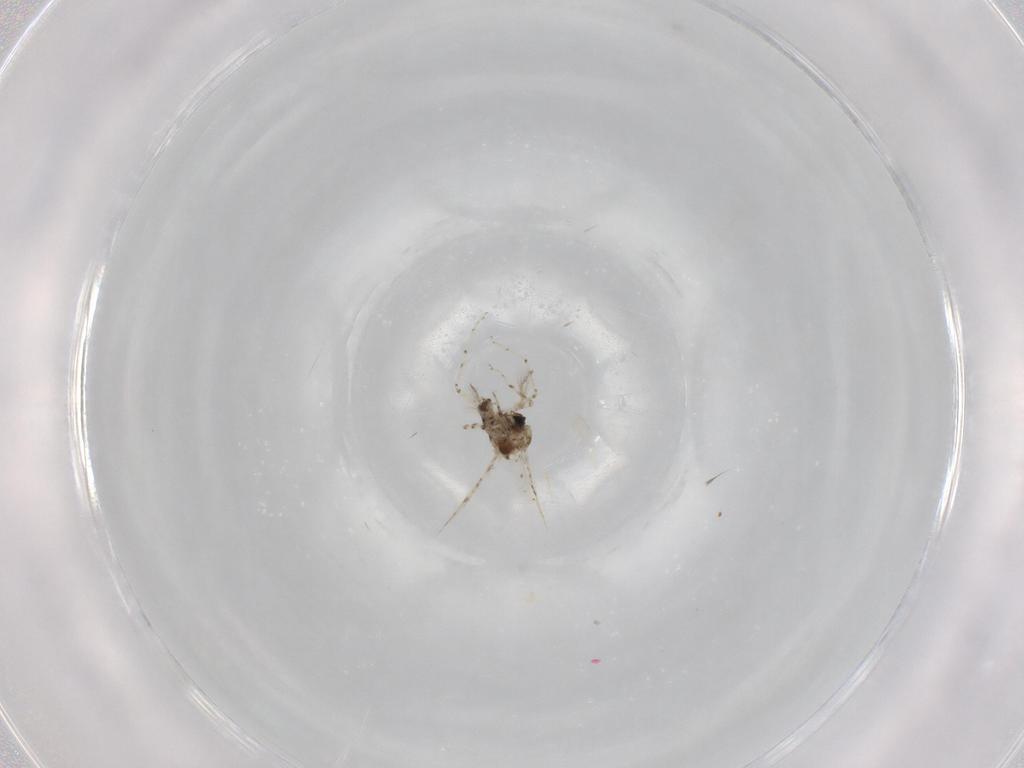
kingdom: Animalia
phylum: Arthropoda
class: Insecta
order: Diptera
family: Ceratopogonidae
